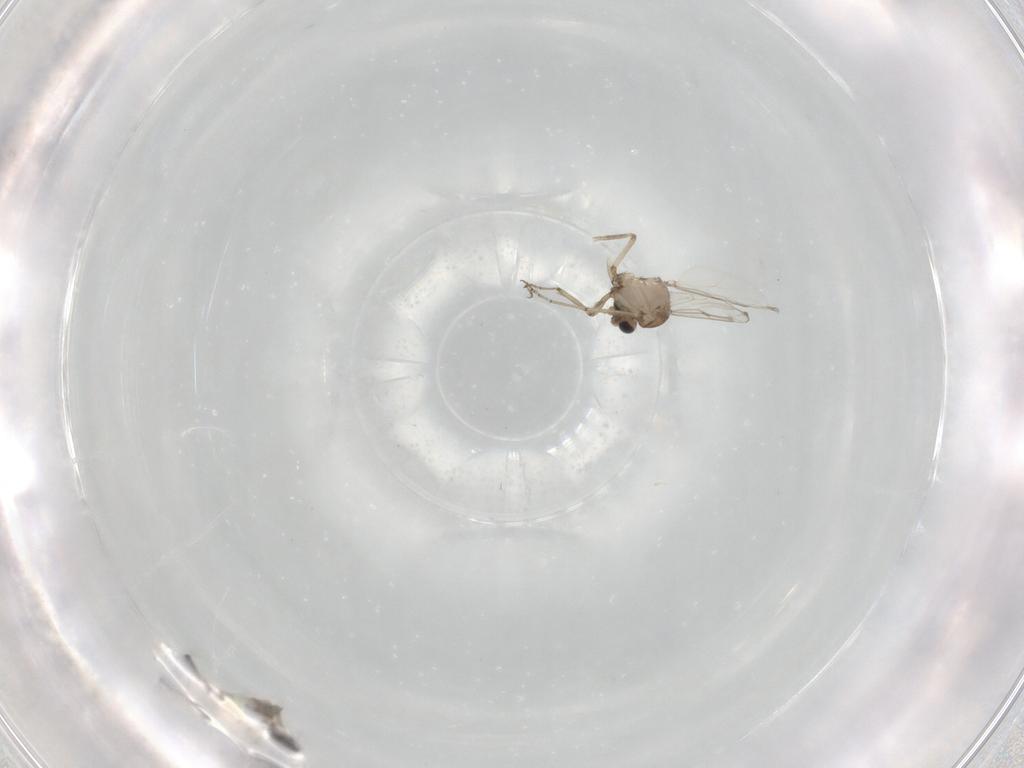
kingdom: Animalia
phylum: Arthropoda
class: Insecta
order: Diptera
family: Ceratopogonidae
